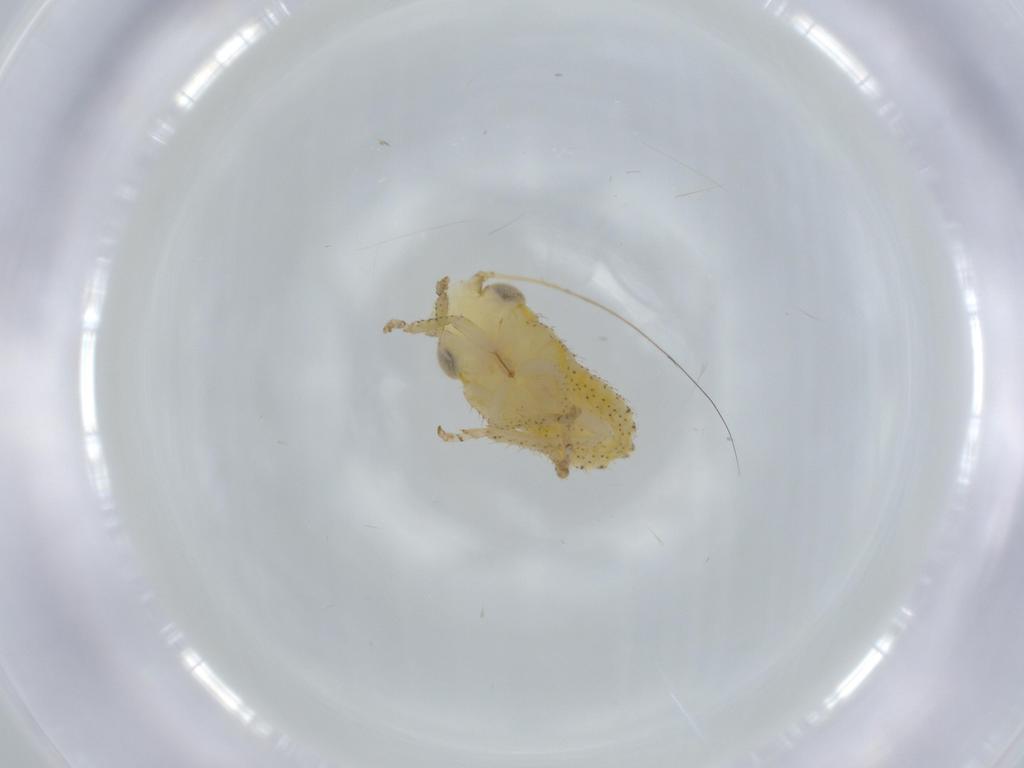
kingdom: Animalia
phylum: Arthropoda
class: Insecta
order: Hemiptera
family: Cicadellidae
